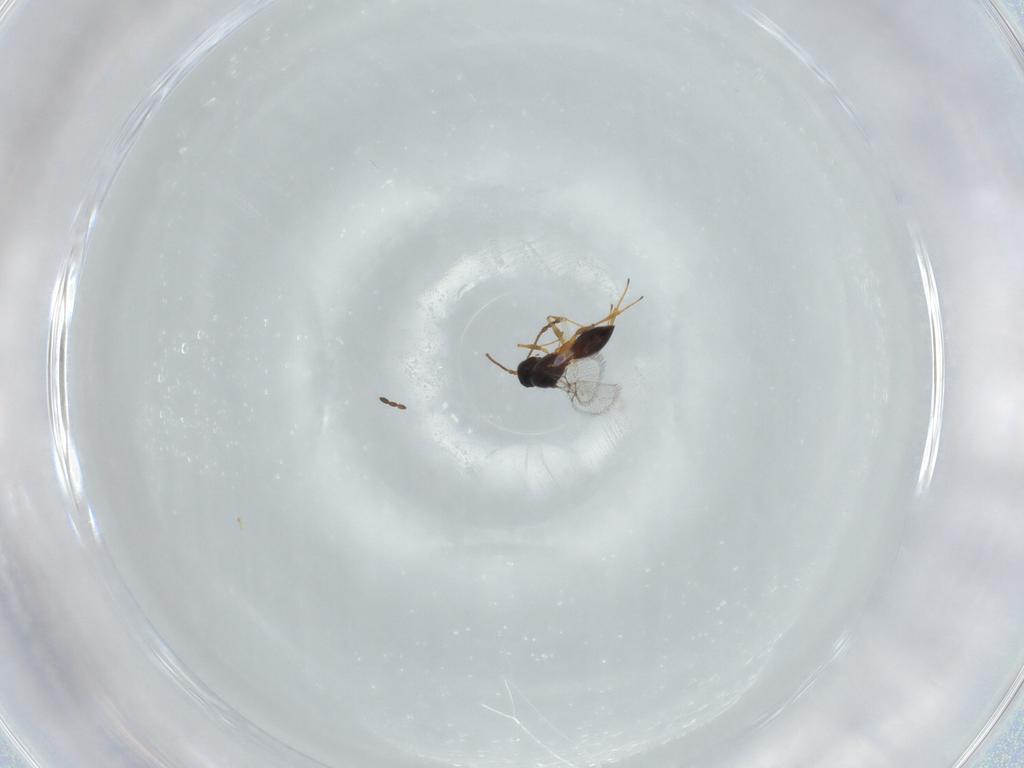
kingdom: Animalia
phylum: Arthropoda
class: Insecta
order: Hymenoptera
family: Figitidae
